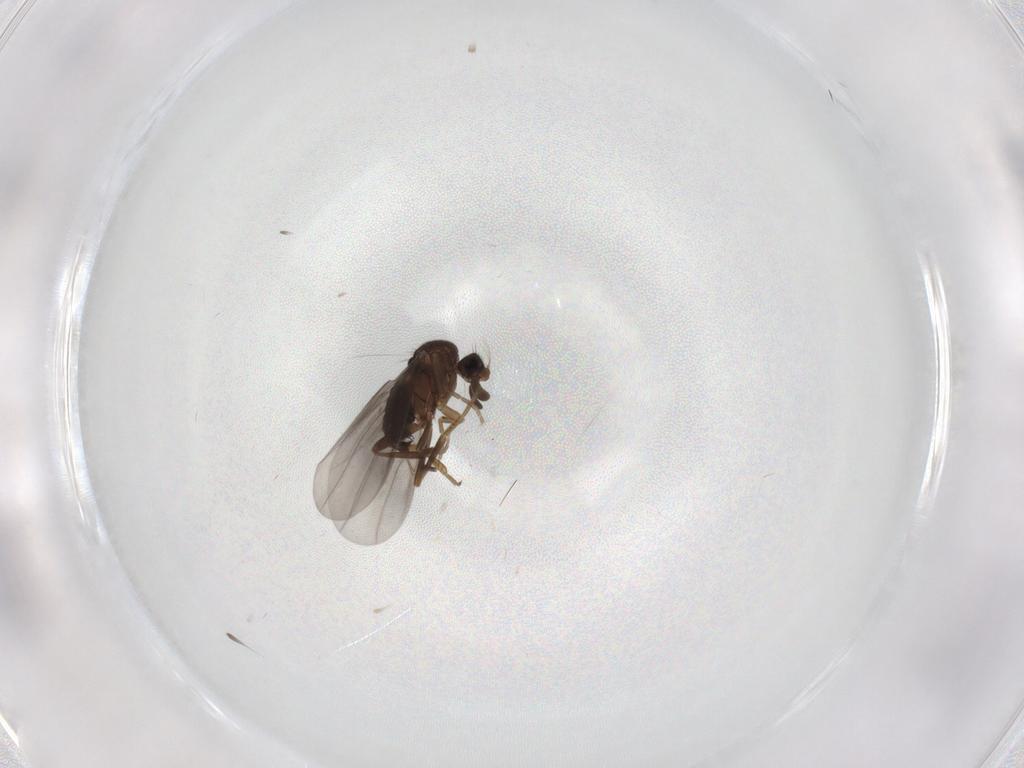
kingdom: Animalia
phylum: Arthropoda
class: Insecta
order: Diptera
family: Phoridae
